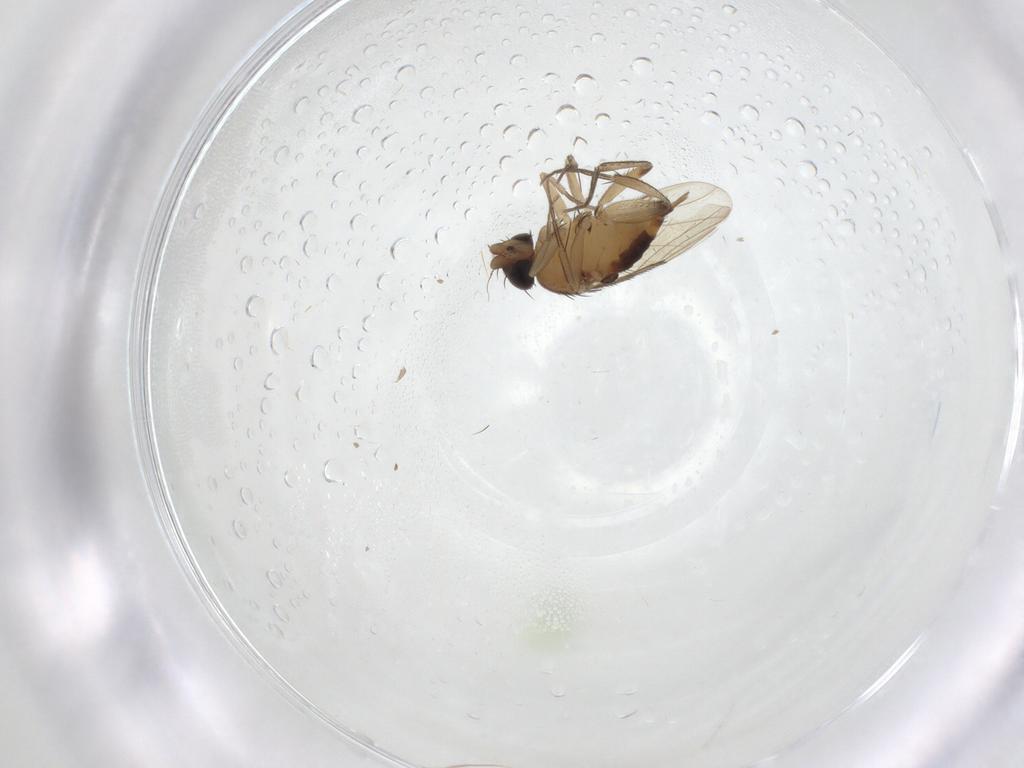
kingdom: Animalia
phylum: Arthropoda
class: Insecta
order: Diptera
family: Phoridae
